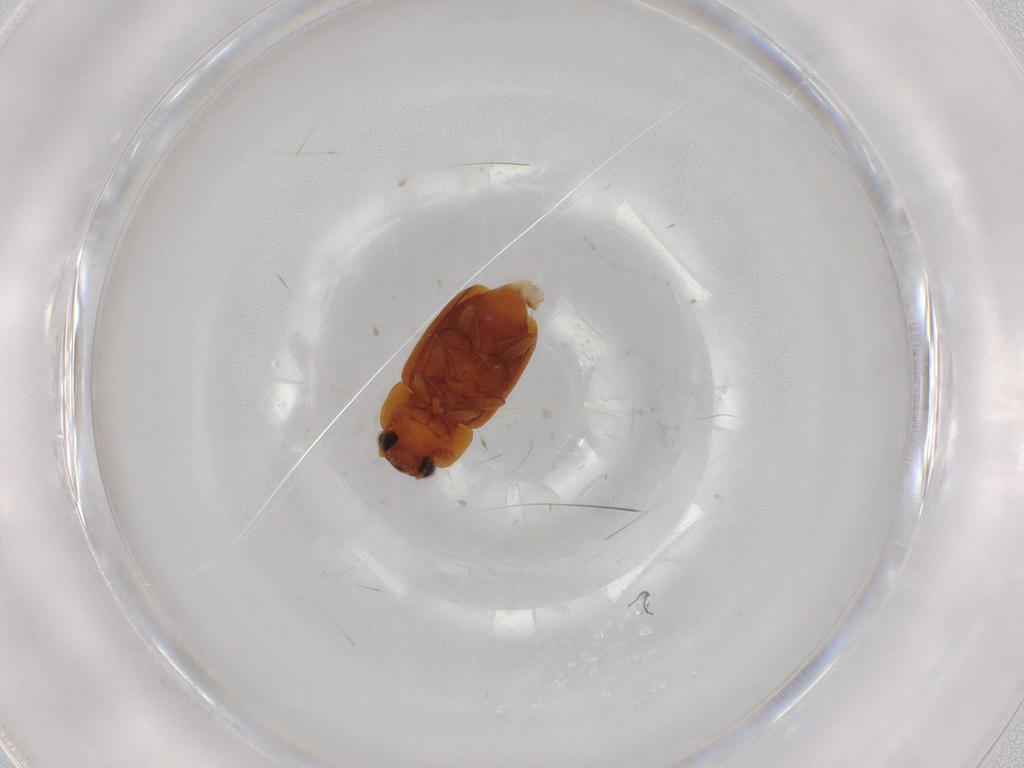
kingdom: Animalia
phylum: Arthropoda
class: Insecta
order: Coleoptera
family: Nitidulidae
